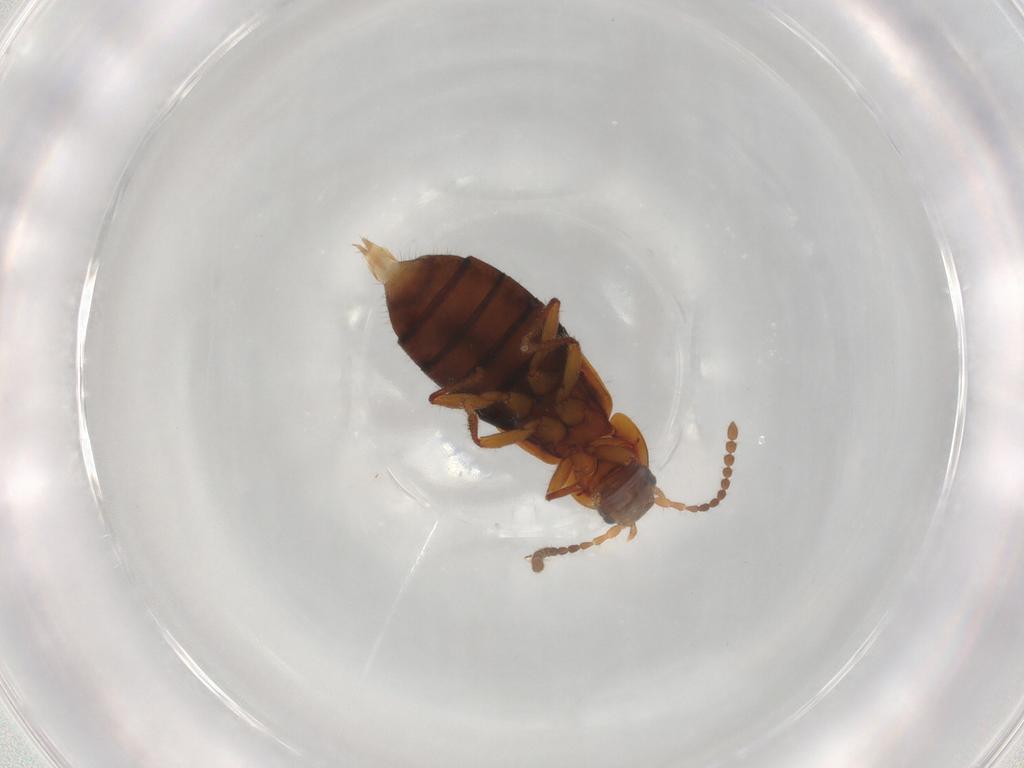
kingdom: Animalia
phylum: Arthropoda
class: Insecta
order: Coleoptera
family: Staphylinidae
